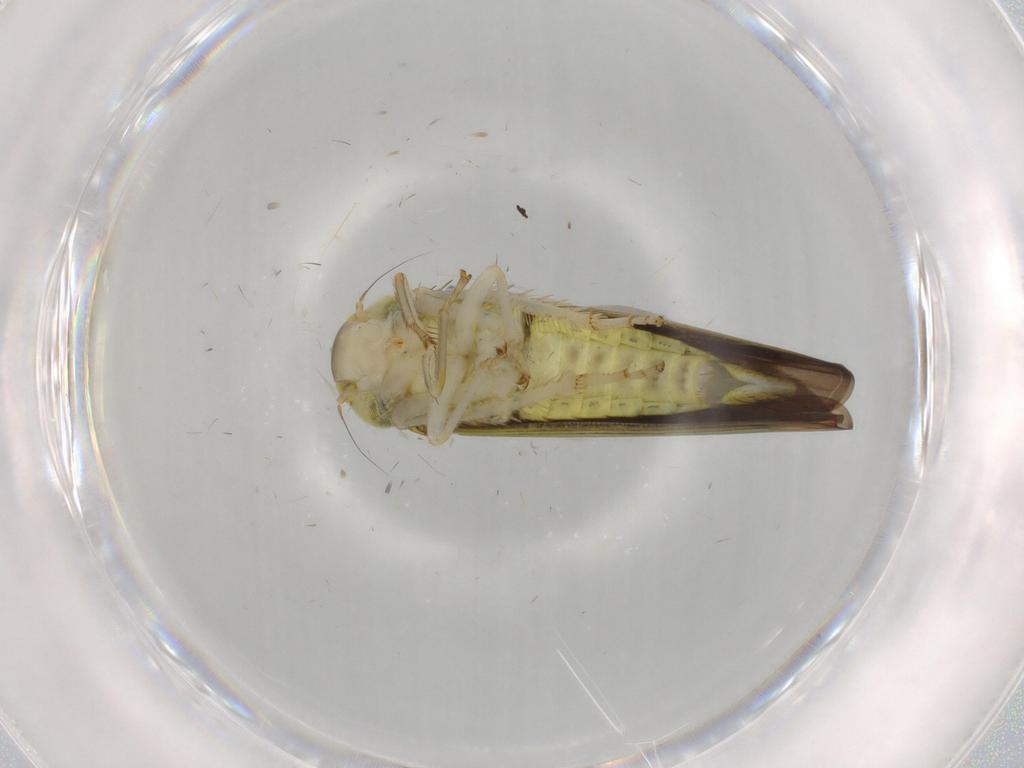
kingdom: Animalia
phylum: Arthropoda
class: Insecta
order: Hemiptera
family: Cicadellidae
